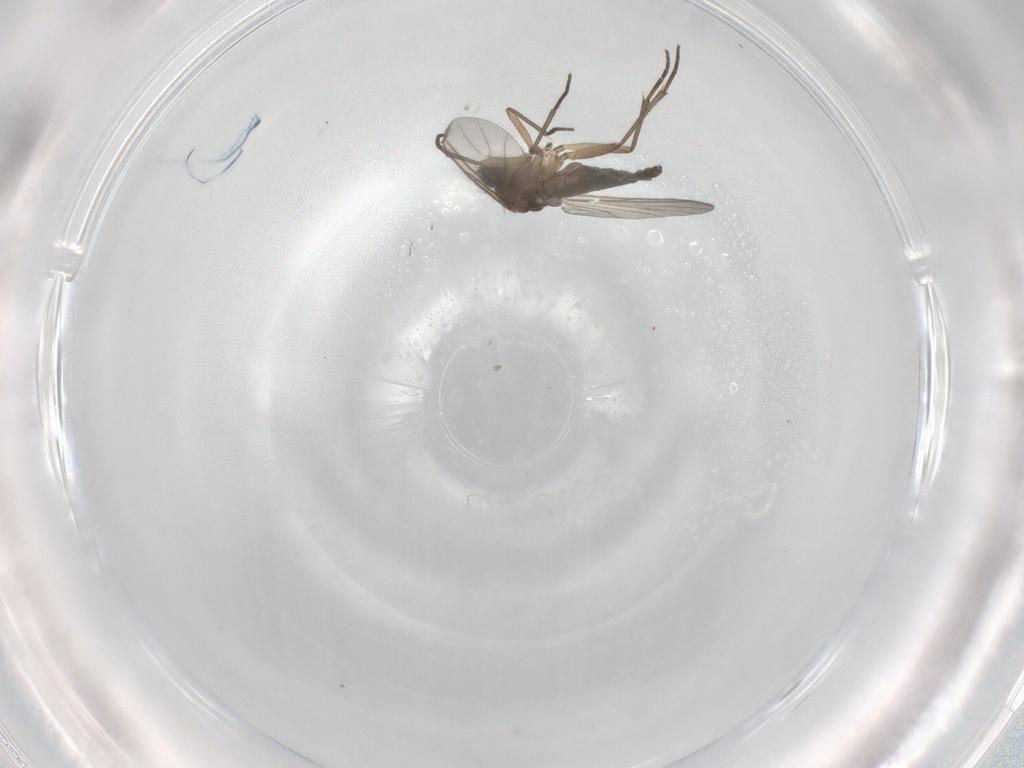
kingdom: Animalia
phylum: Arthropoda
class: Insecta
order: Diptera
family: Sciaridae
